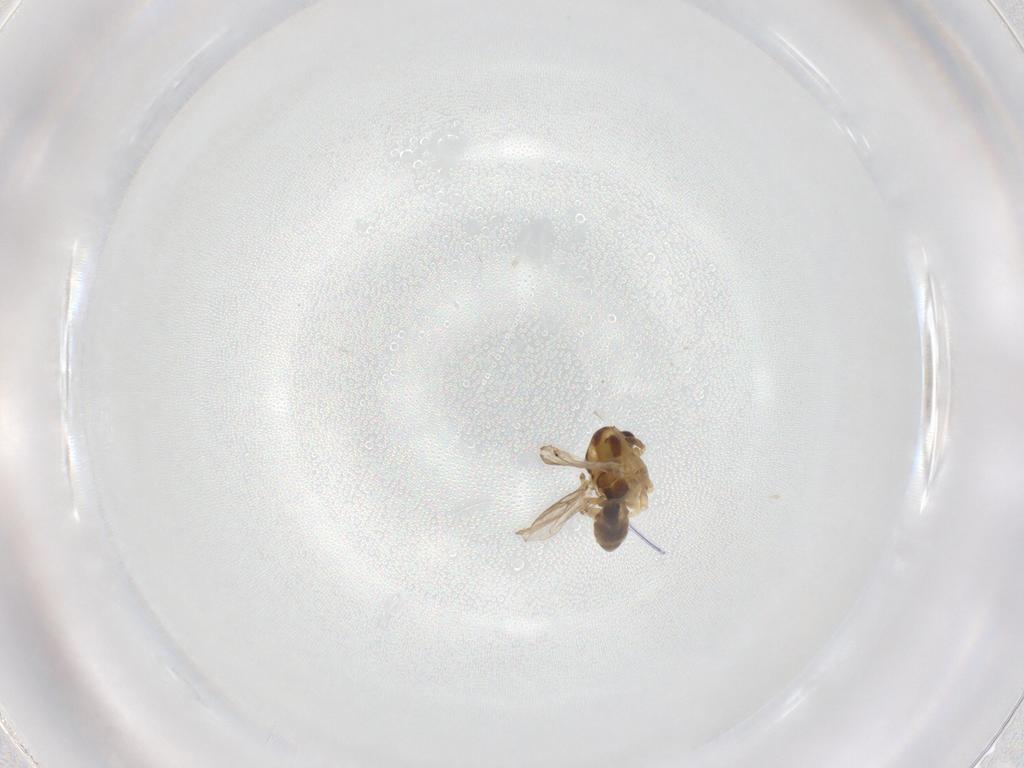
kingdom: Animalia
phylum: Arthropoda
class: Insecta
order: Diptera
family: Chironomidae
